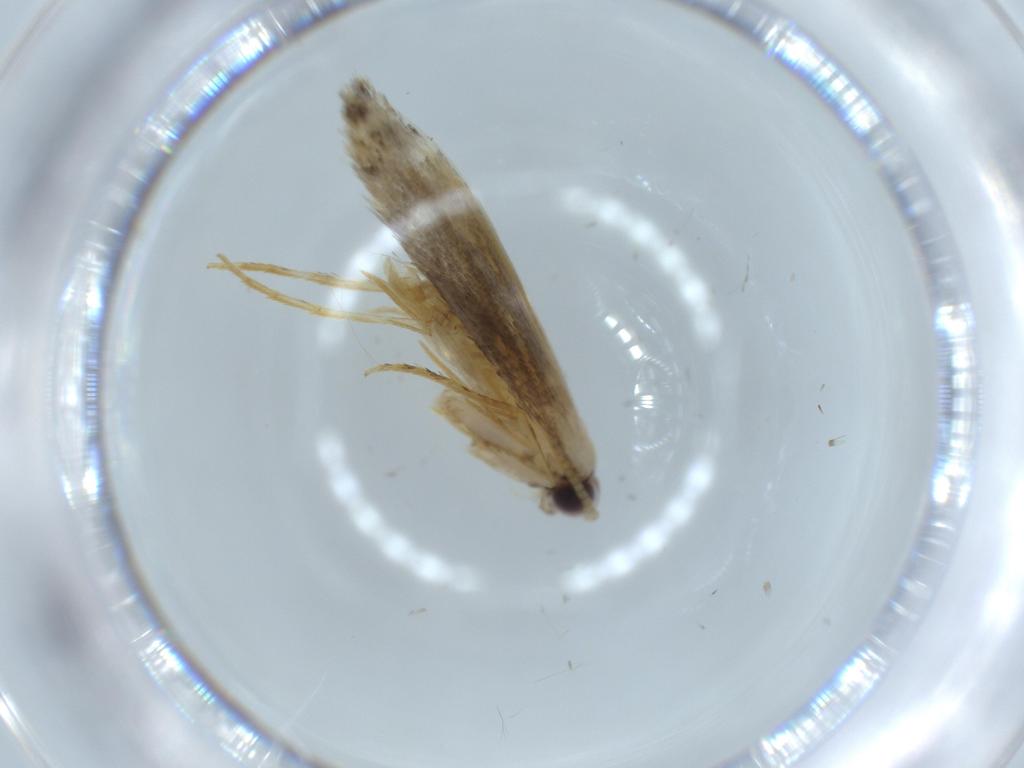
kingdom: Animalia
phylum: Arthropoda
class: Insecta
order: Lepidoptera
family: Tineidae
